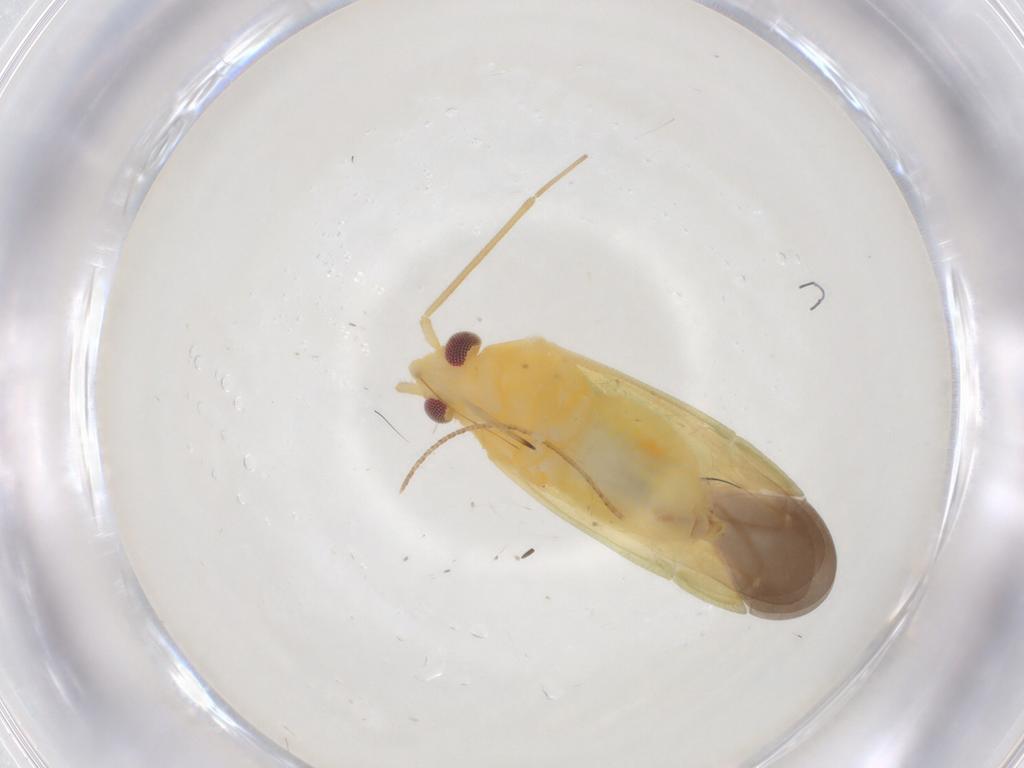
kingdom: Animalia
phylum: Arthropoda
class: Insecta
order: Hemiptera
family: Miridae
